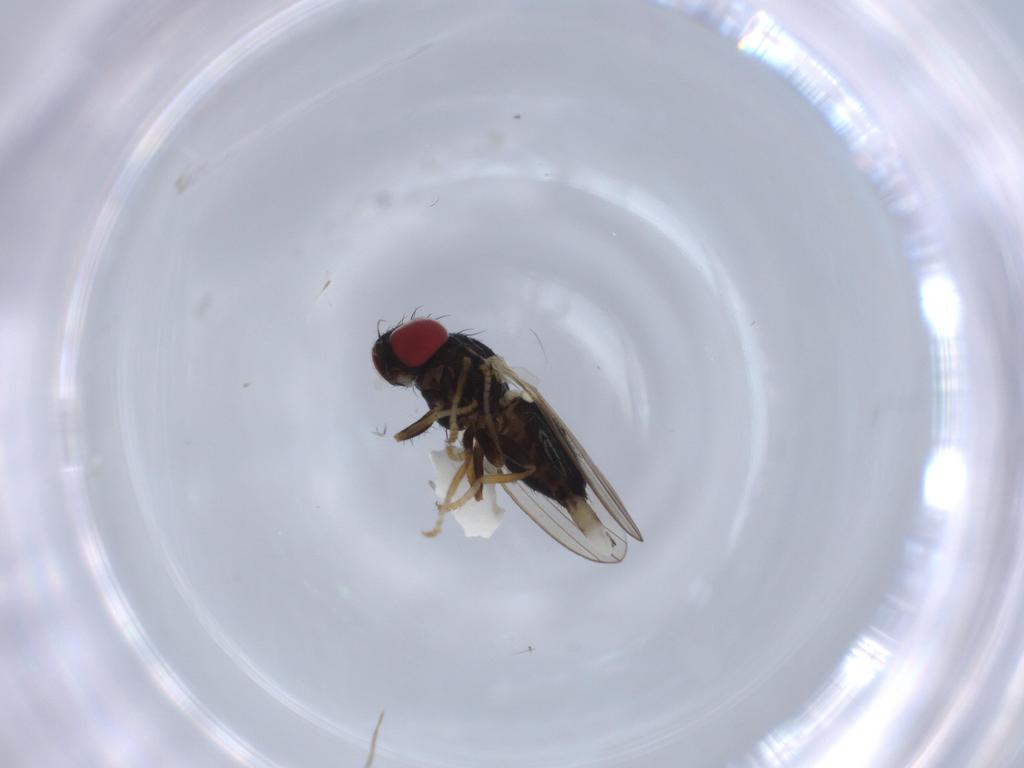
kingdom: Animalia
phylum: Arthropoda
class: Insecta
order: Diptera
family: Chamaemyiidae
